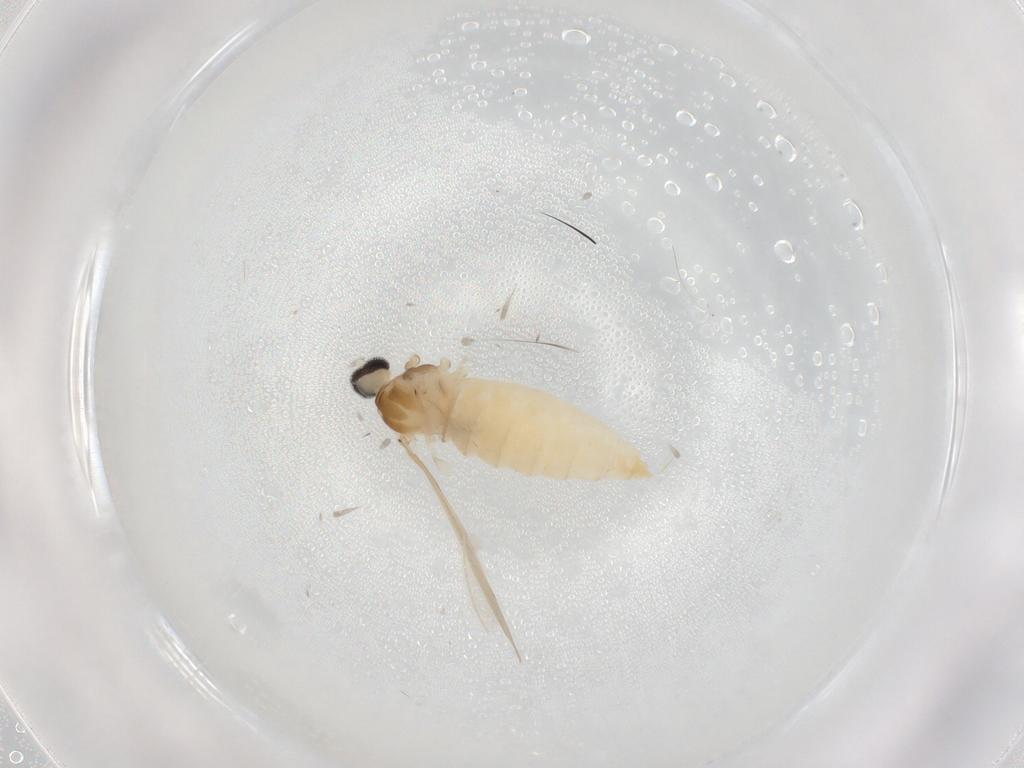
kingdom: Animalia
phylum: Arthropoda
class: Insecta
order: Diptera
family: Cecidomyiidae
